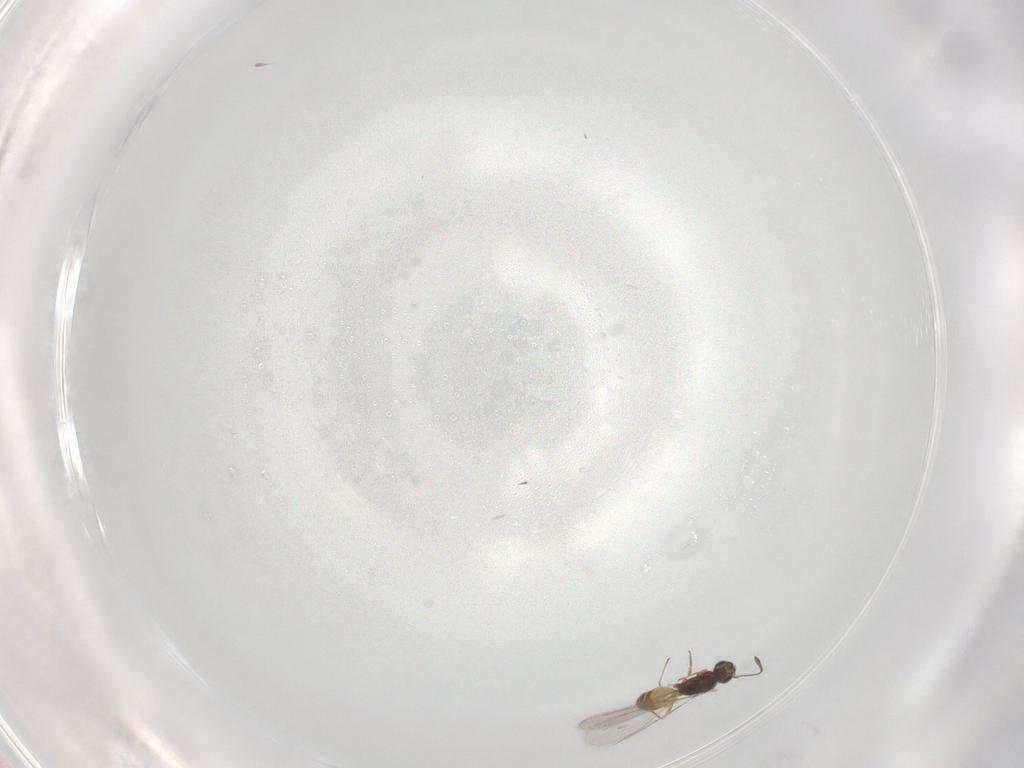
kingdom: Animalia
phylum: Arthropoda
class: Insecta
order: Hymenoptera
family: Mymaridae
